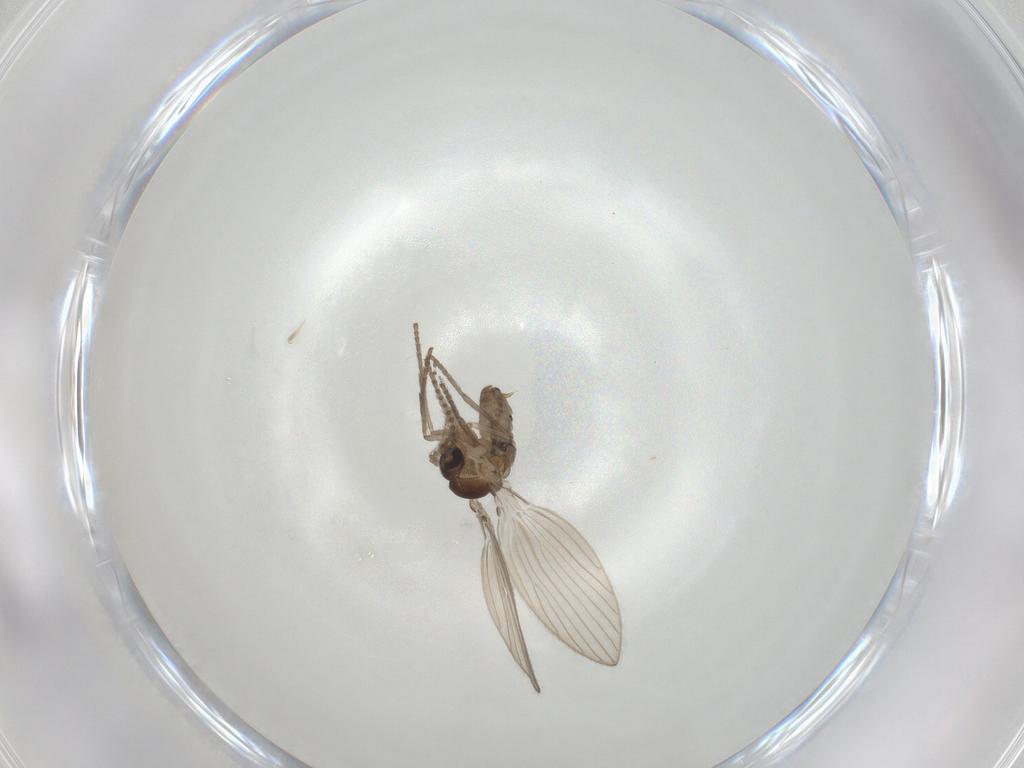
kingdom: Animalia
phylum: Arthropoda
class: Insecta
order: Diptera
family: Psychodidae
